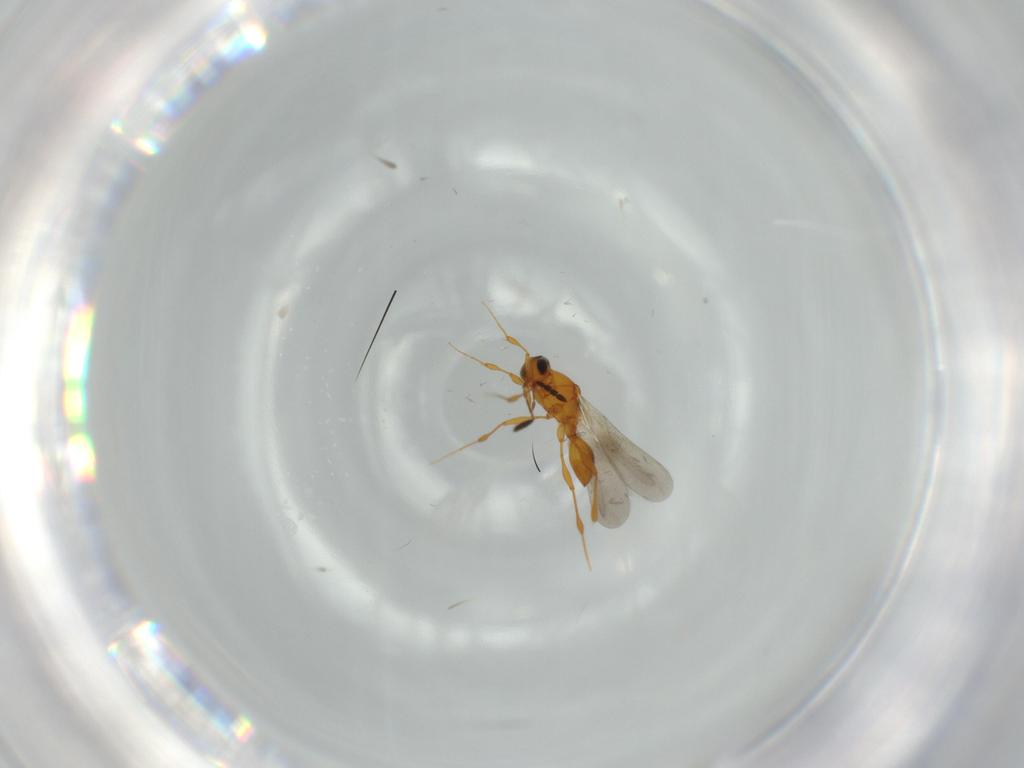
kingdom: Animalia
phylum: Arthropoda
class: Insecta
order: Hymenoptera
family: Platygastridae
